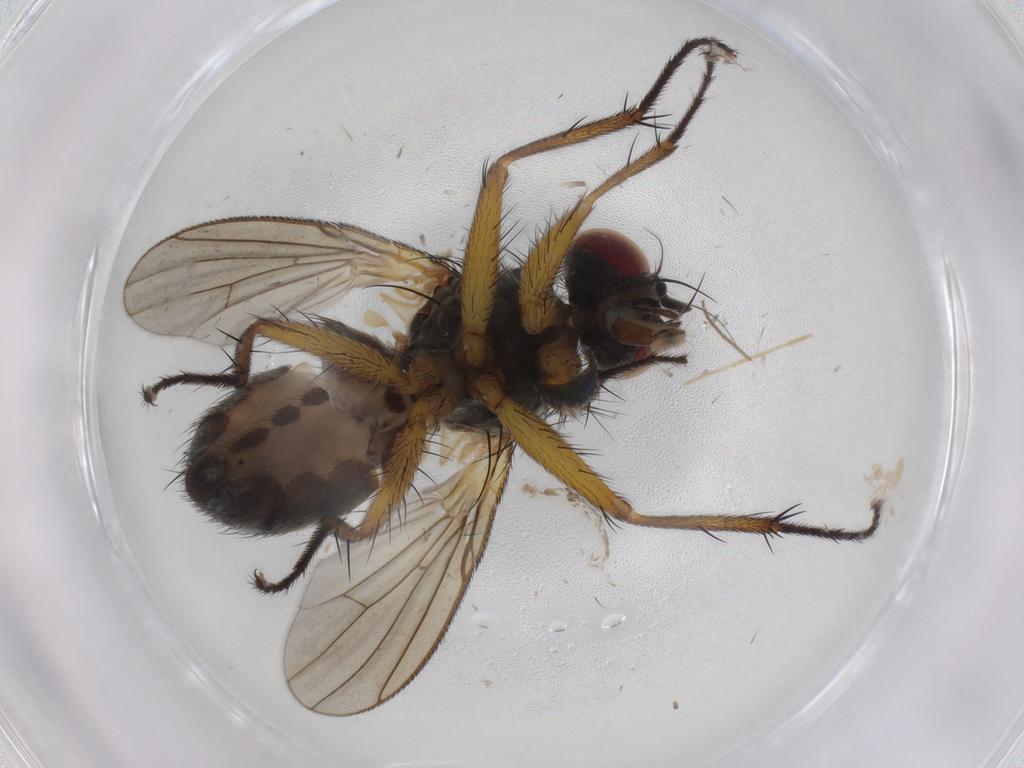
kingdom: Animalia
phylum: Arthropoda
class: Insecta
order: Diptera
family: Muscidae
